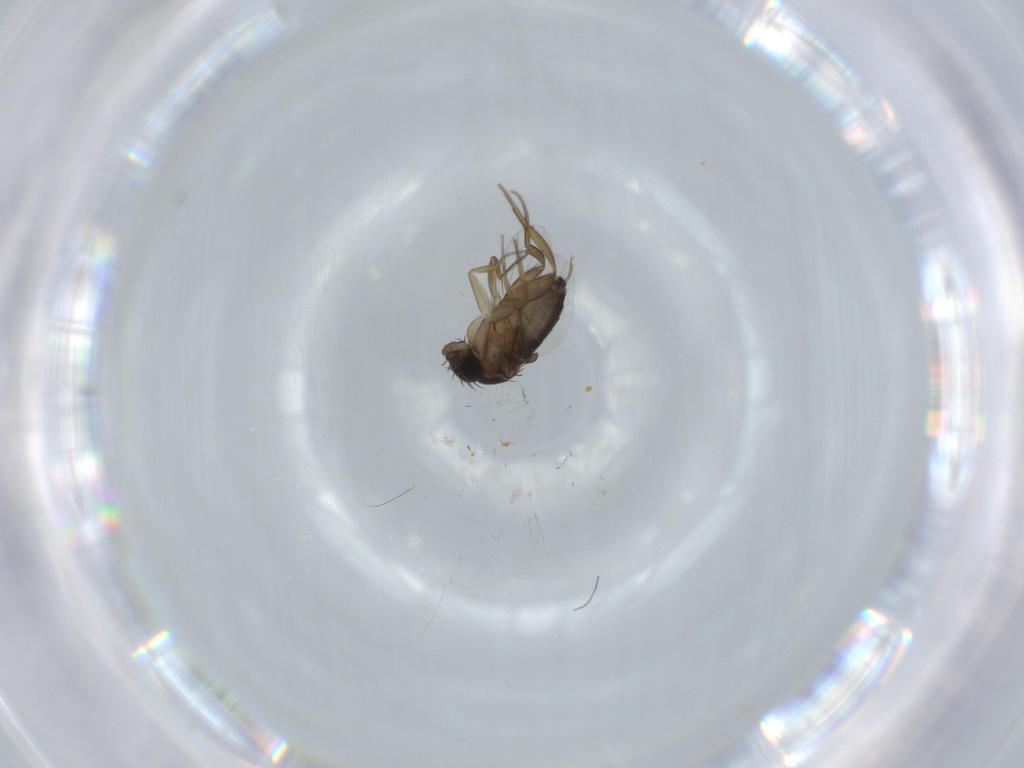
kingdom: Animalia
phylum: Arthropoda
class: Insecta
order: Diptera
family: Phoridae
